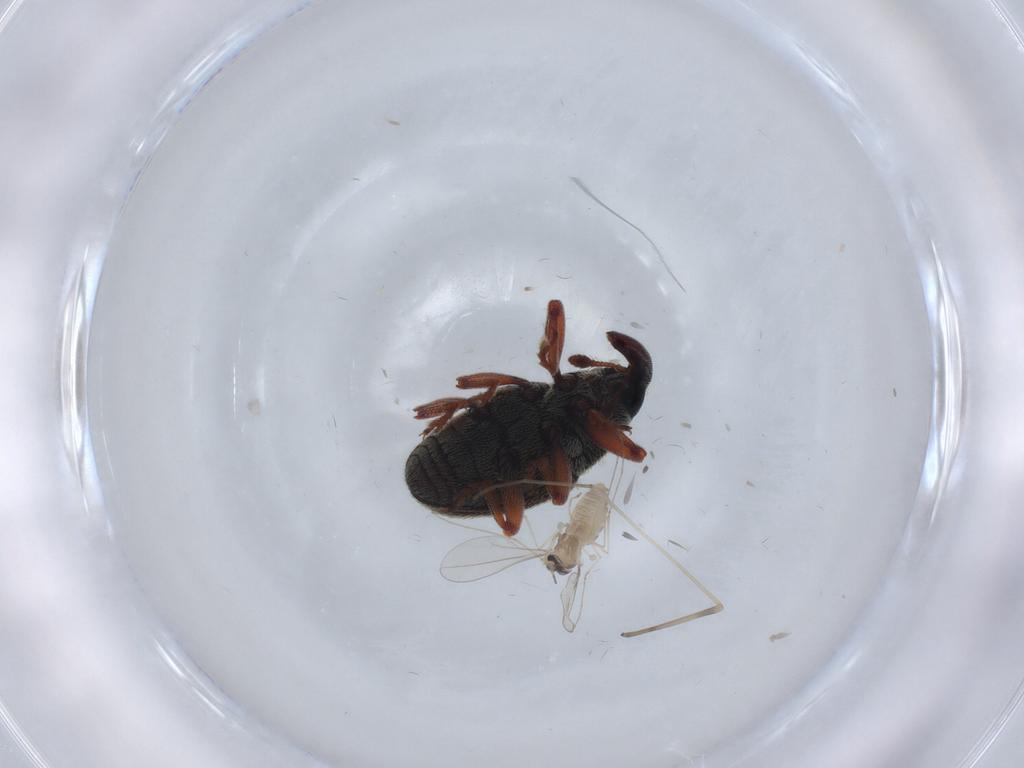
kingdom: Animalia
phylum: Arthropoda
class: Insecta
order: Diptera
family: Cecidomyiidae
